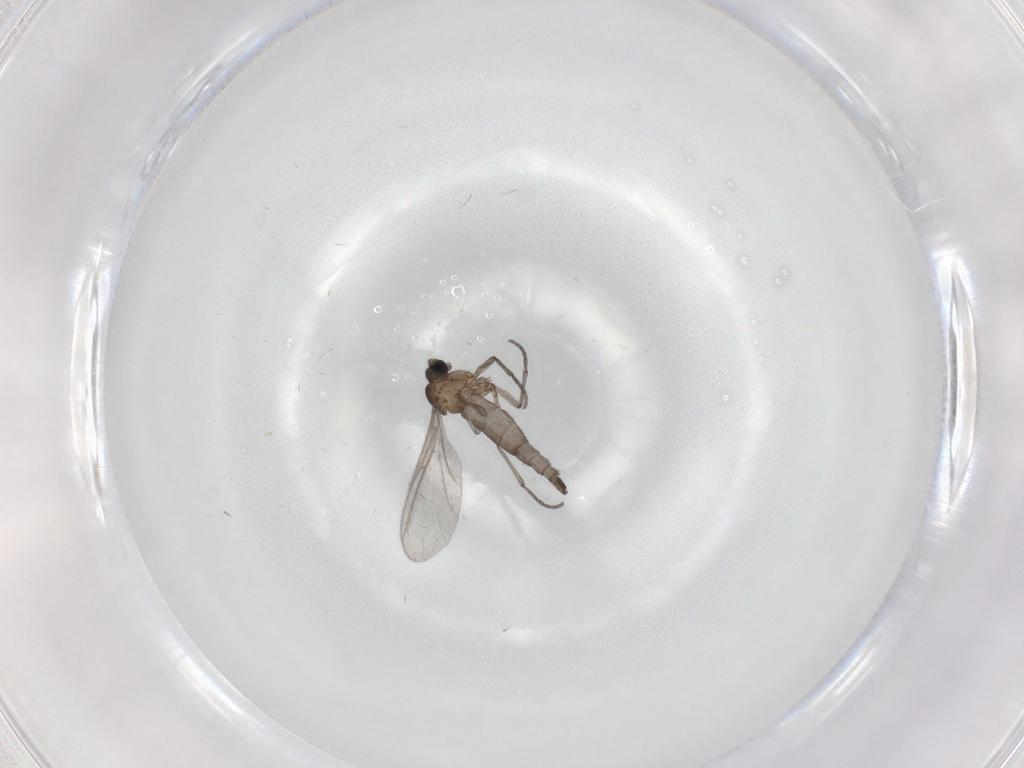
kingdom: Animalia
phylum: Arthropoda
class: Insecta
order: Diptera
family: Sciaridae
